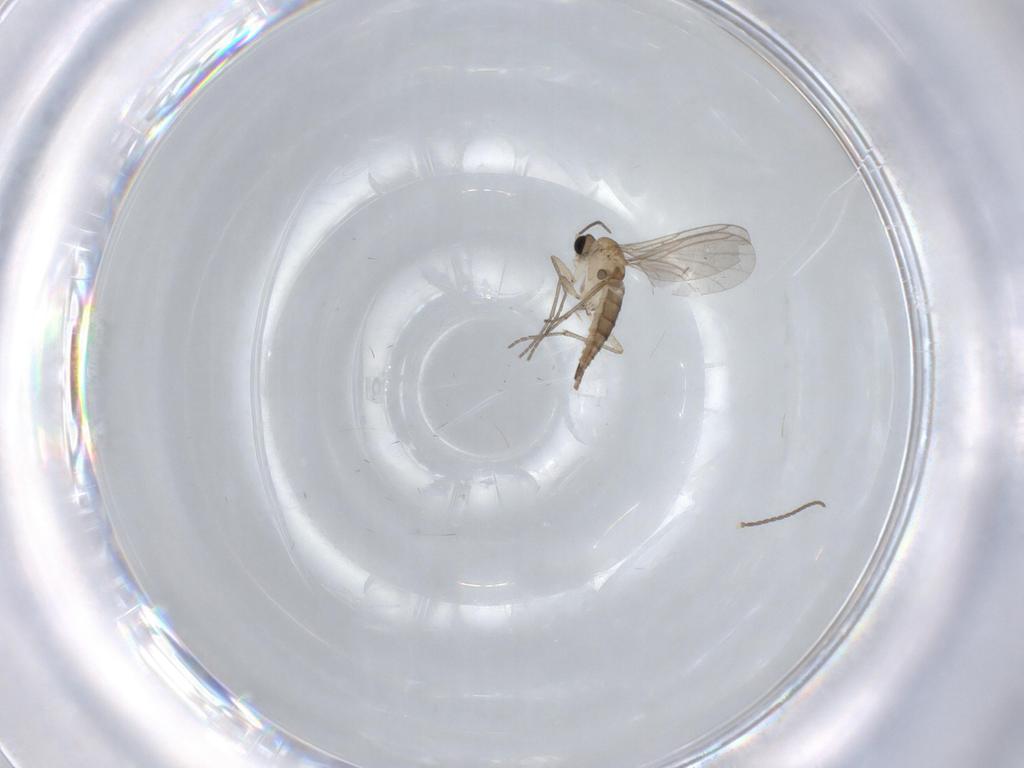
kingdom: Animalia
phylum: Arthropoda
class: Insecta
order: Diptera
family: Sciaridae
